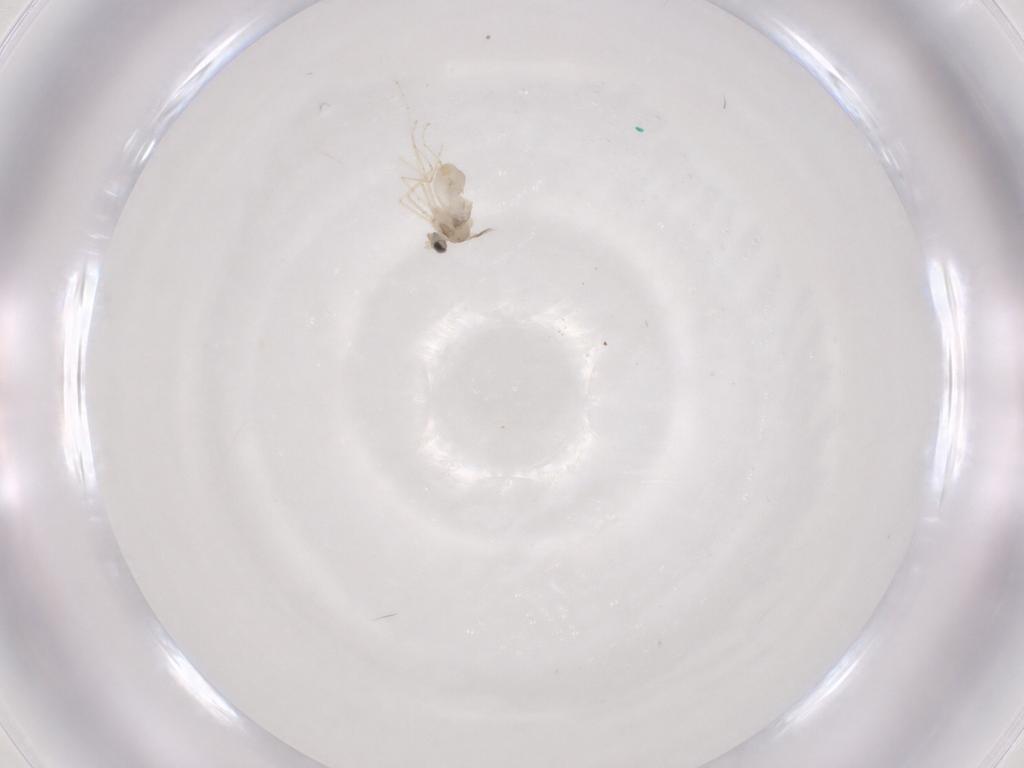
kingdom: Animalia
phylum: Arthropoda
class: Insecta
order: Diptera
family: Cecidomyiidae
